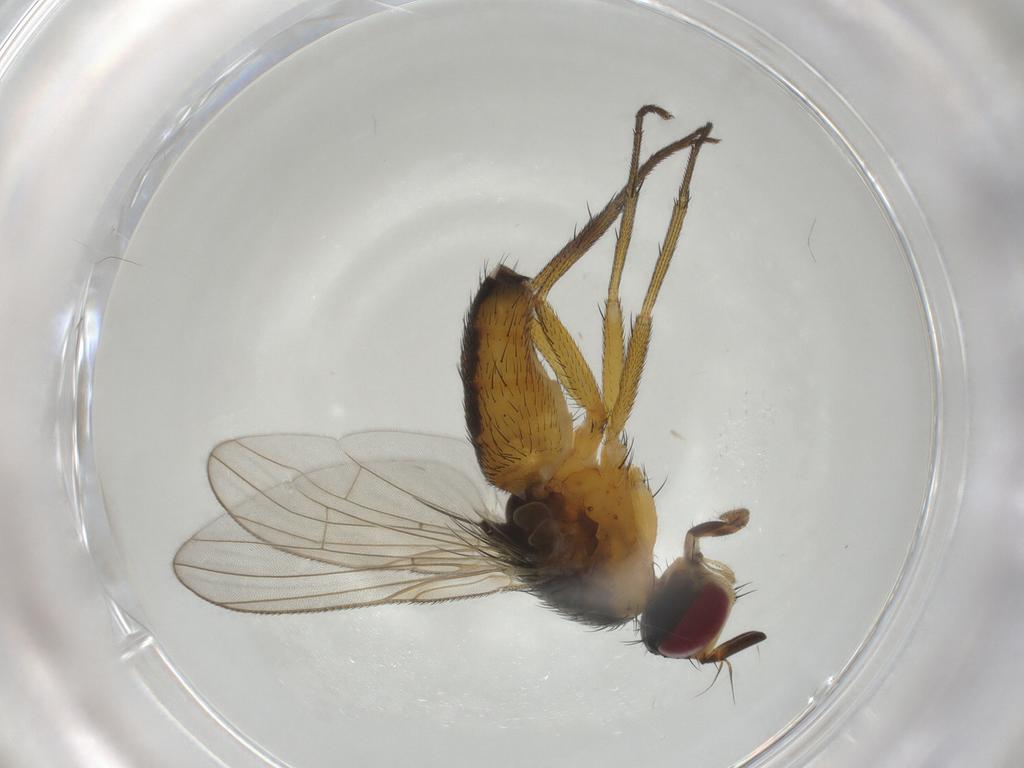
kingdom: Animalia
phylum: Arthropoda
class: Insecta
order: Diptera
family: Muscidae
